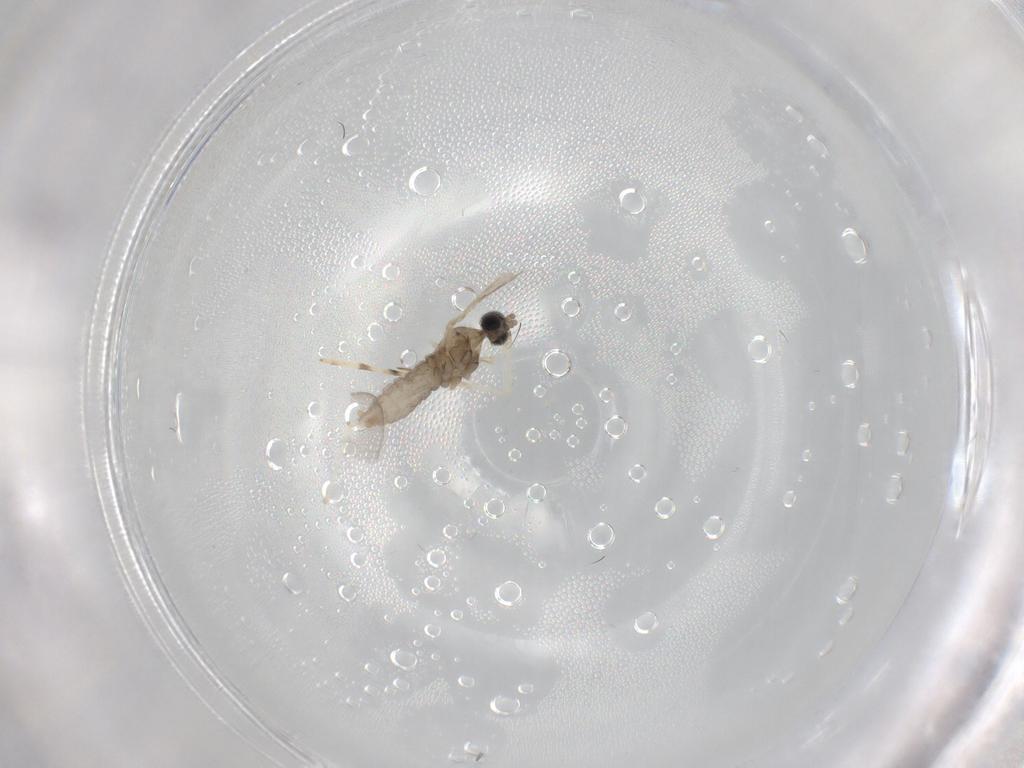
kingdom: Animalia
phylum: Arthropoda
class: Insecta
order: Diptera
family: Cecidomyiidae
